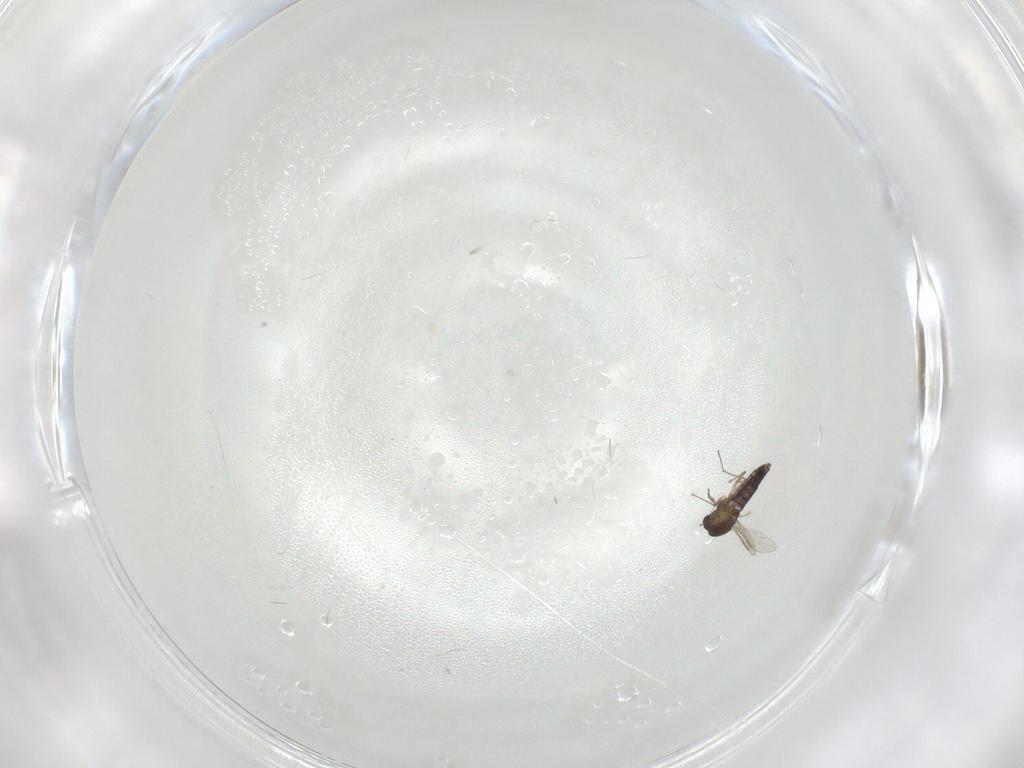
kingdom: Animalia
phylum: Arthropoda
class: Insecta
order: Diptera
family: Chironomidae
